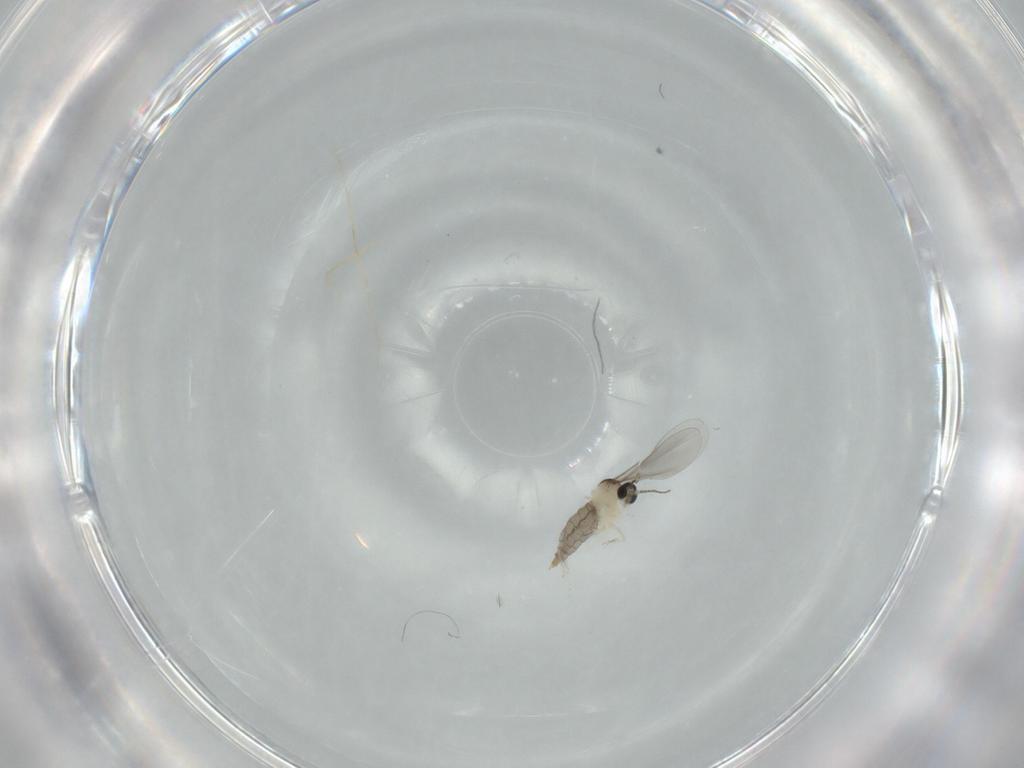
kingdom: Animalia
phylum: Arthropoda
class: Insecta
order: Diptera
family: Cecidomyiidae
